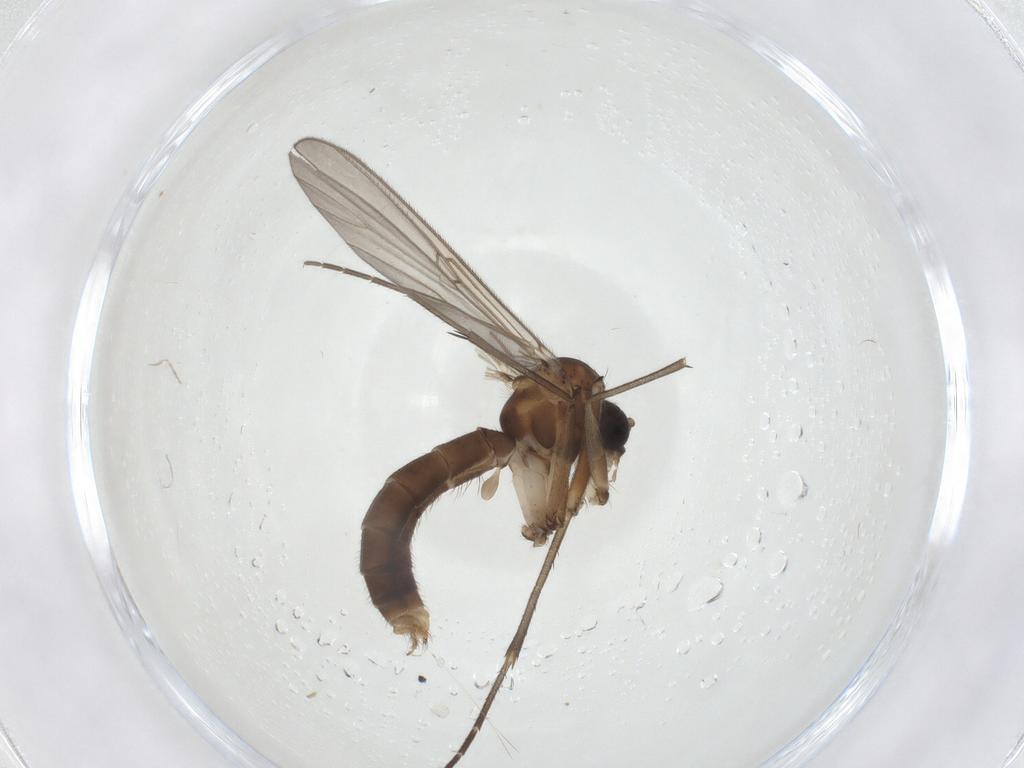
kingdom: Animalia
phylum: Arthropoda
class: Insecta
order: Diptera
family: Mycetophilidae
